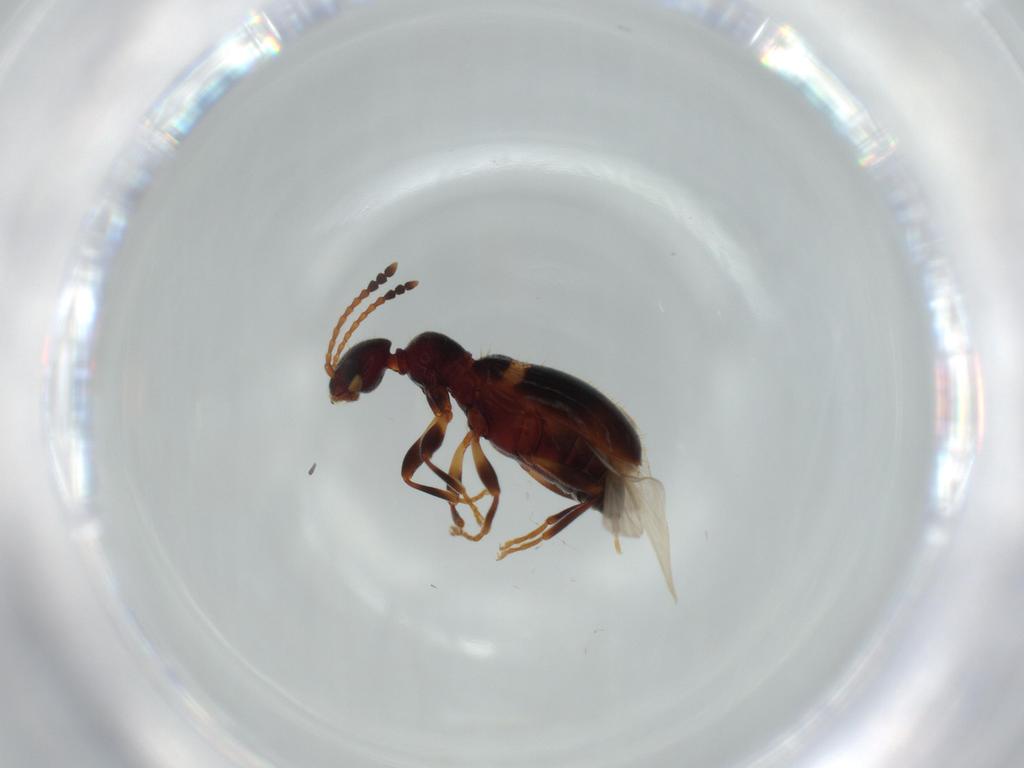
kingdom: Animalia
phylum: Arthropoda
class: Insecta
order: Coleoptera
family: Anthicidae
